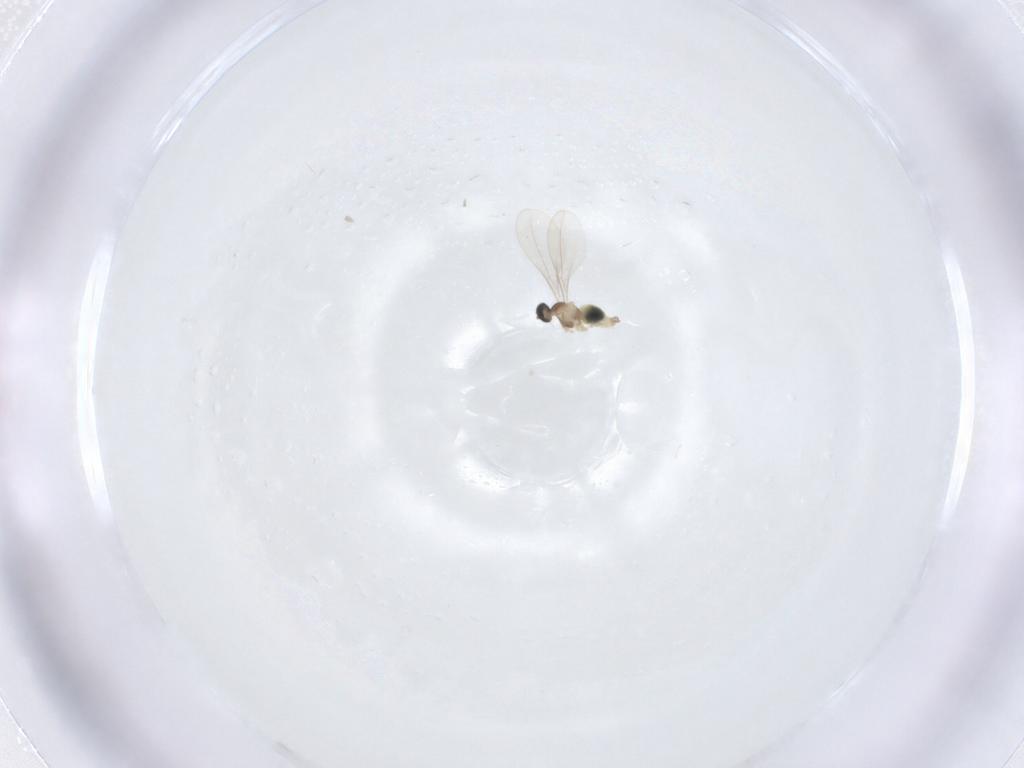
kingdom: Animalia
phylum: Arthropoda
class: Insecta
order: Diptera
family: Cecidomyiidae
